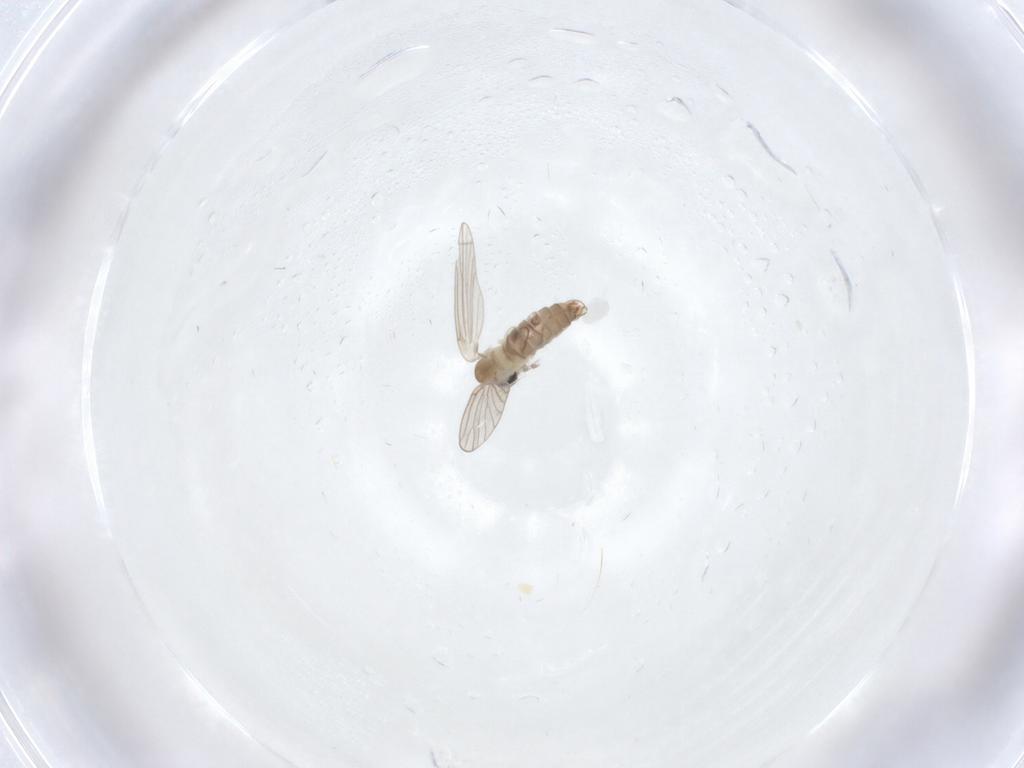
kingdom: Animalia
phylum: Arthropoda
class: Insecta
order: Diptera
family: Psychodidae
